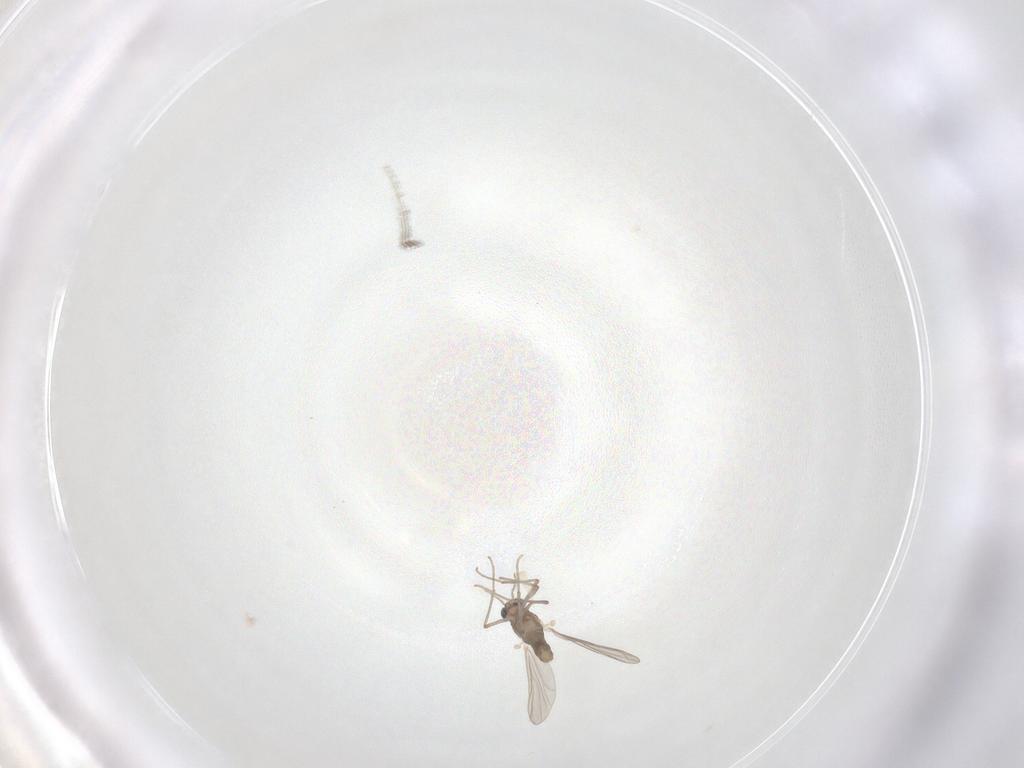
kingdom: Animalia
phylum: Arthropoda
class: Insecta
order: Diptera
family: Chironomidae
